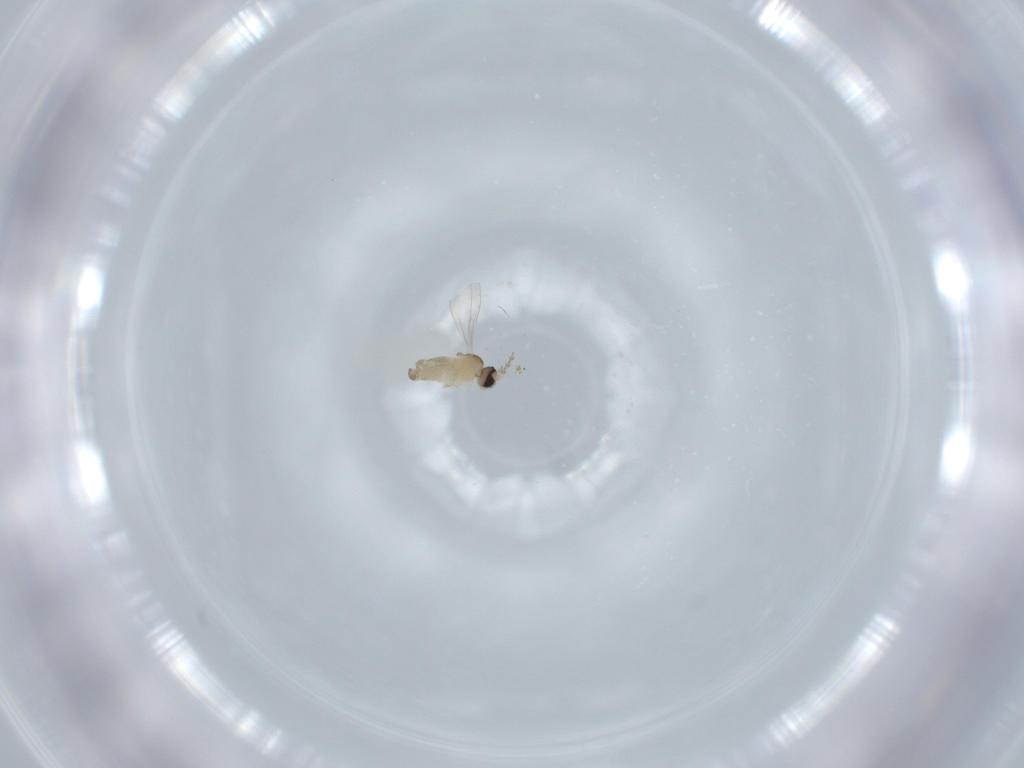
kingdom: Animalia
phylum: Arthropoda
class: Insecta
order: Diptera
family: Cecidomyiidae
